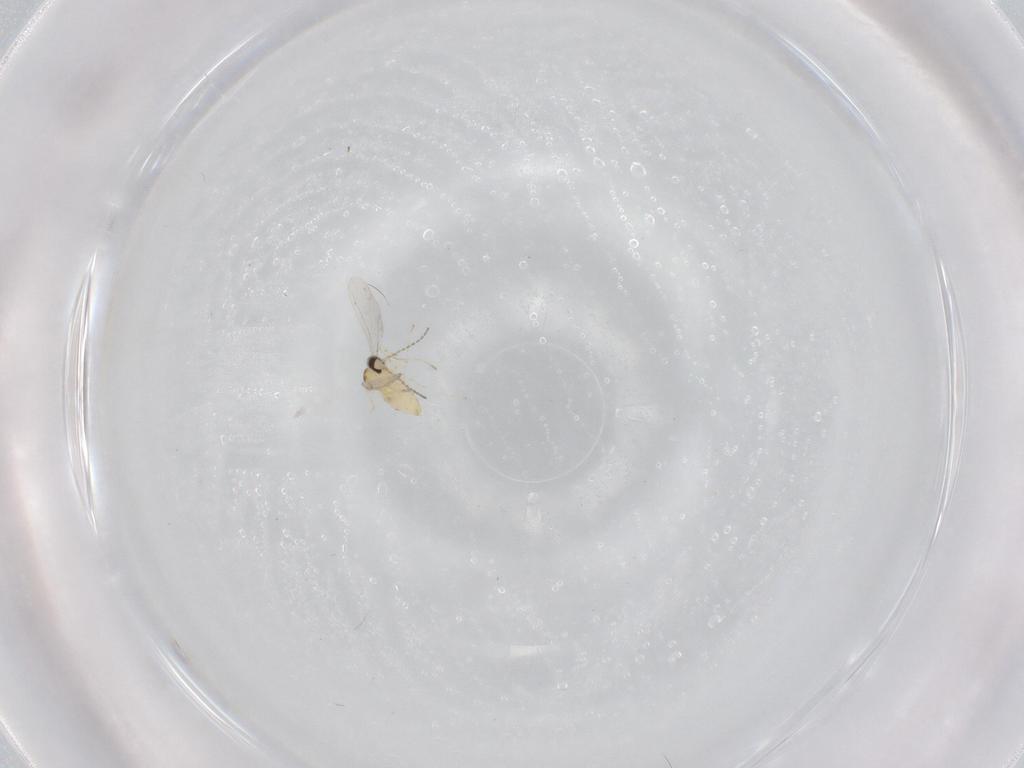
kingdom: Animalia
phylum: Arthropoda
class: Insecta
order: Diptera
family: Cecidomyiidae
